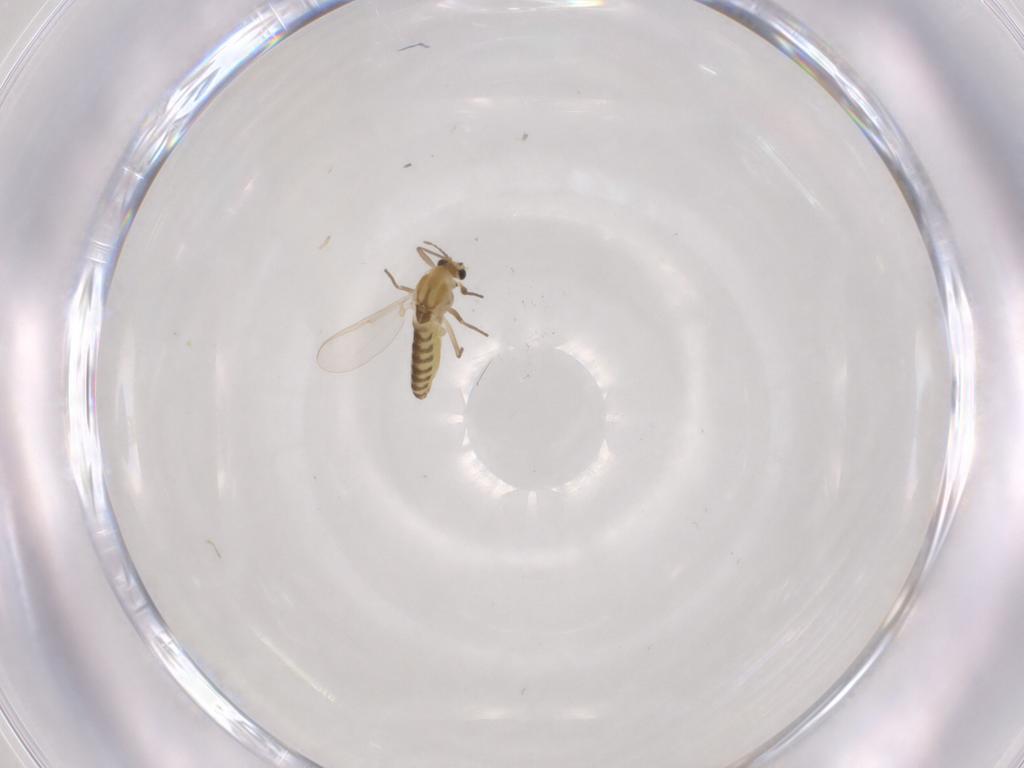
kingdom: Animalia
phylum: Arthropoda
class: Insecta
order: Diptera
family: Chironomidae
